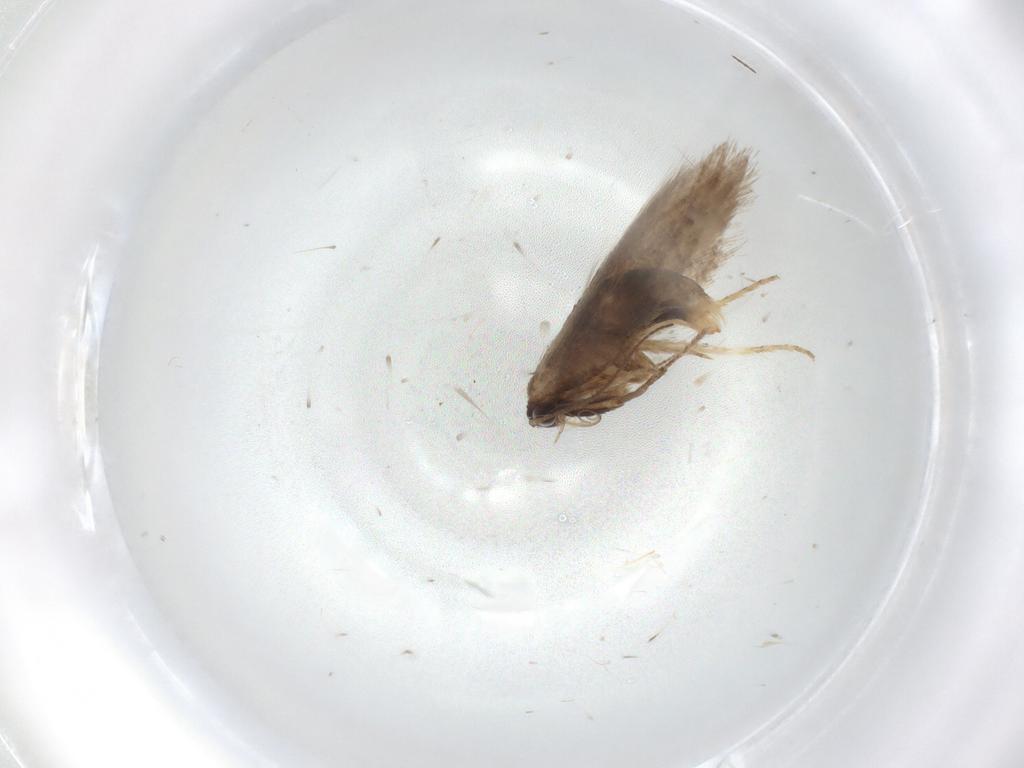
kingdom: Animalia
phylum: Arthropoda
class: Insecta
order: Lepidoptera
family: Nepticulidae
